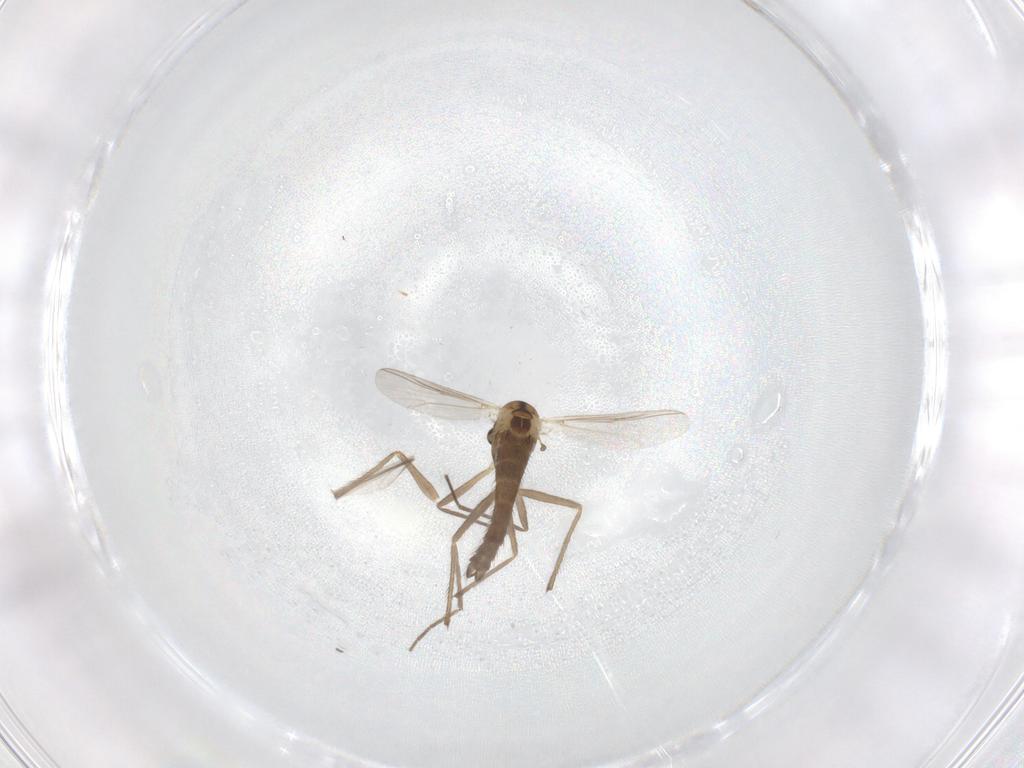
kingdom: Animalia
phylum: Arthropoda
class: Insecta
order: Diptera
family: Chironomidae
